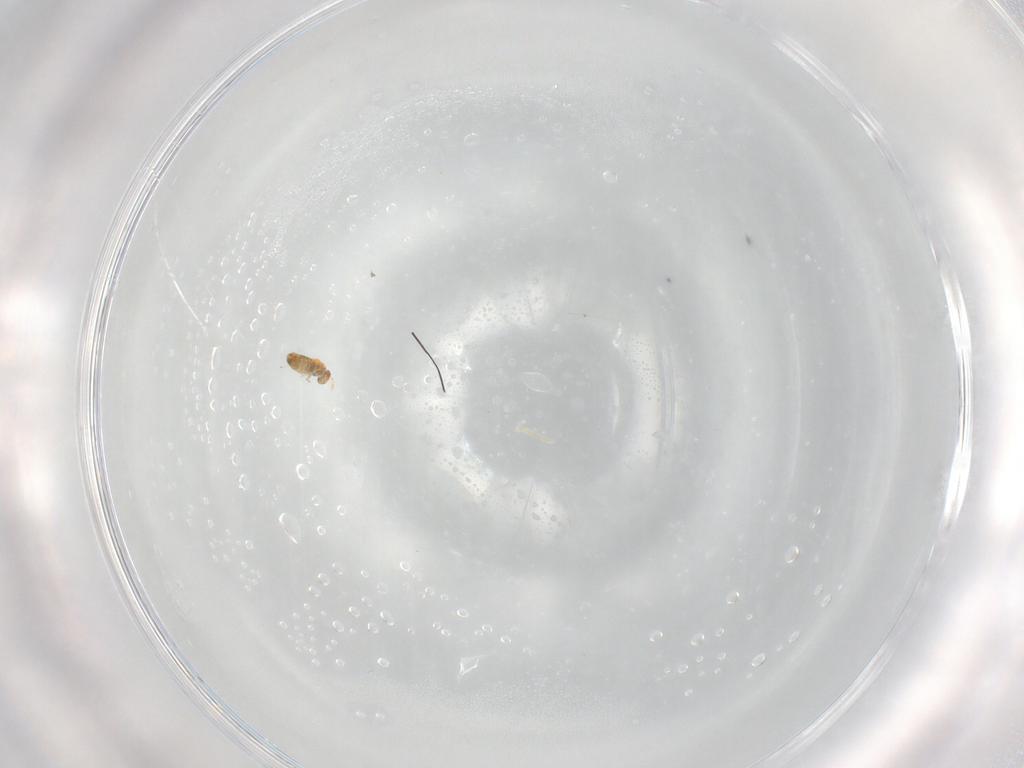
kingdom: Animalia
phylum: Arthropoda
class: Insecta
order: Hymenoptera
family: Trichogrammatidae
